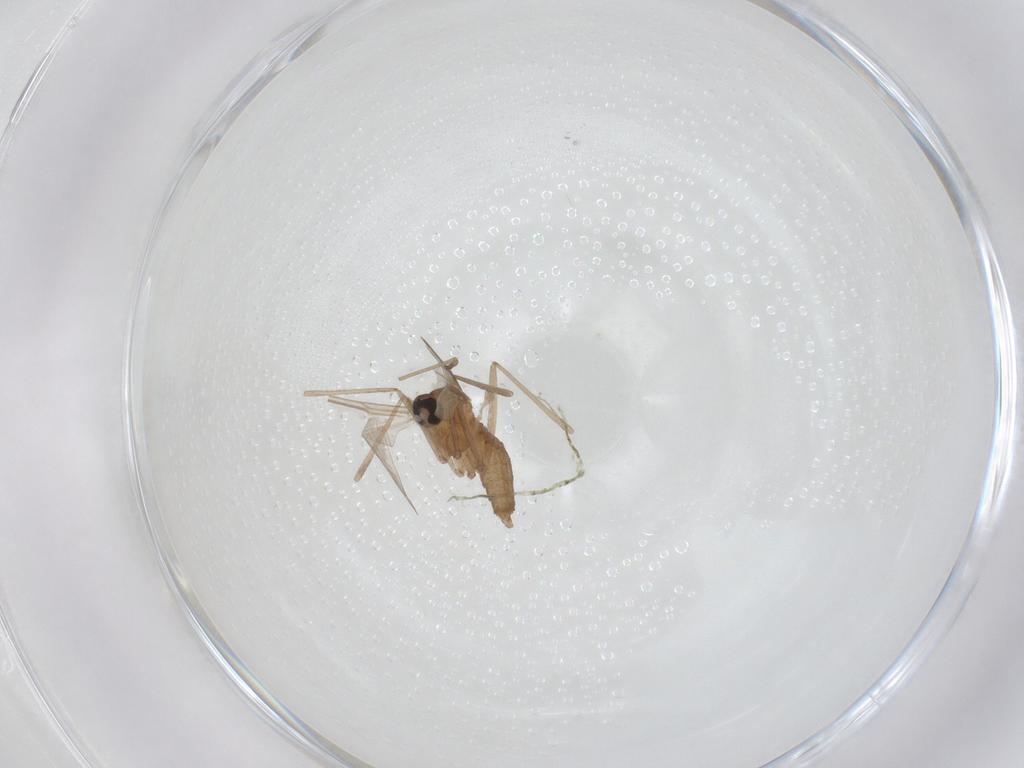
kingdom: Animalia
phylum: Arthropoda
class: Insecta
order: Diptera
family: Cecidomyiidae
